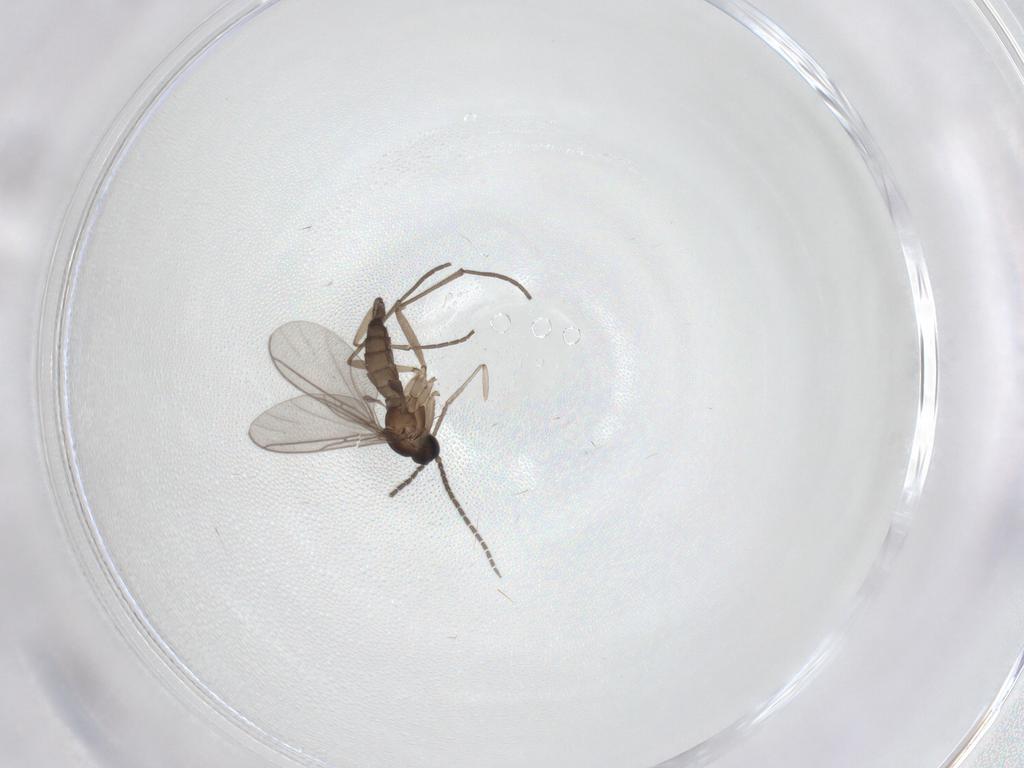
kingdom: Animalia
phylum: Arthropoda
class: Insecta
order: Diptera
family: Sciaridae
